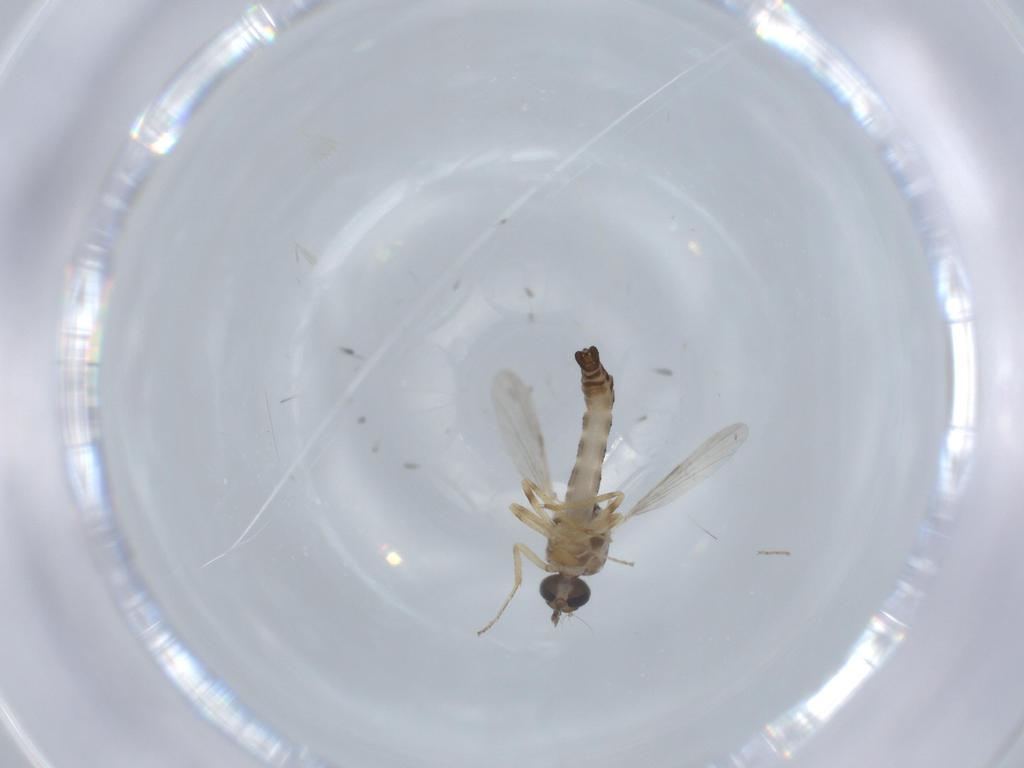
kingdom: Animalia
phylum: Arthropoda
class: Insecta
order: Diptera
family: Ceratopogonidae
